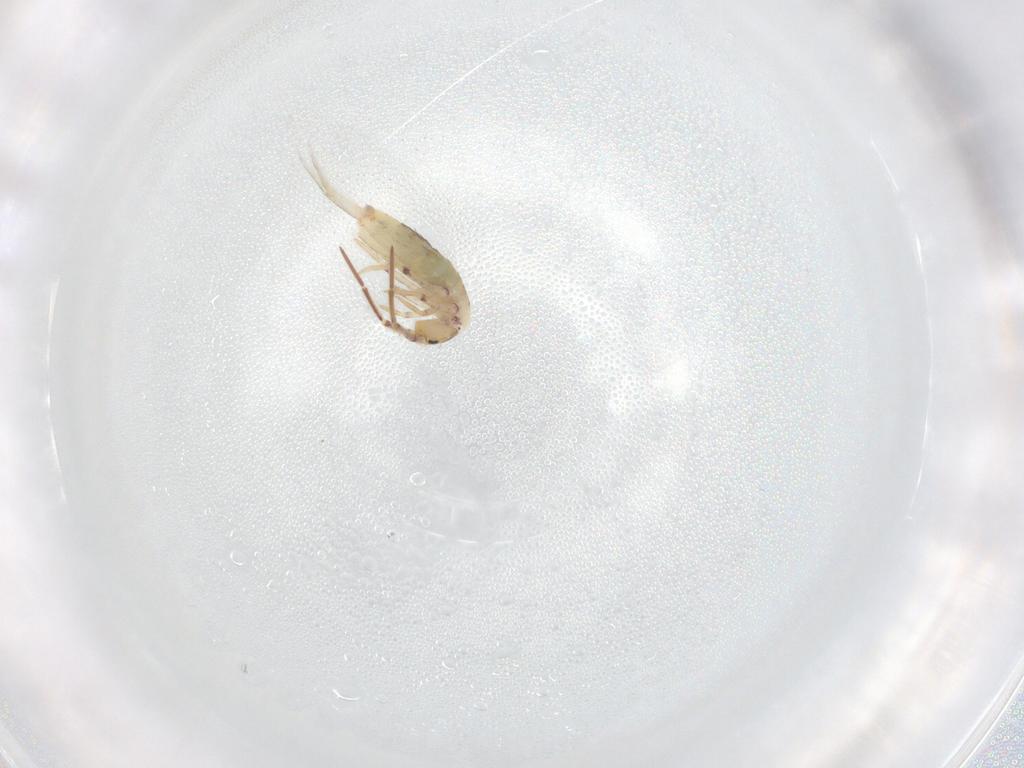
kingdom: Animalia
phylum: Arthropoda
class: Collembola
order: Entomobryomorpha
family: Entomobryidae
